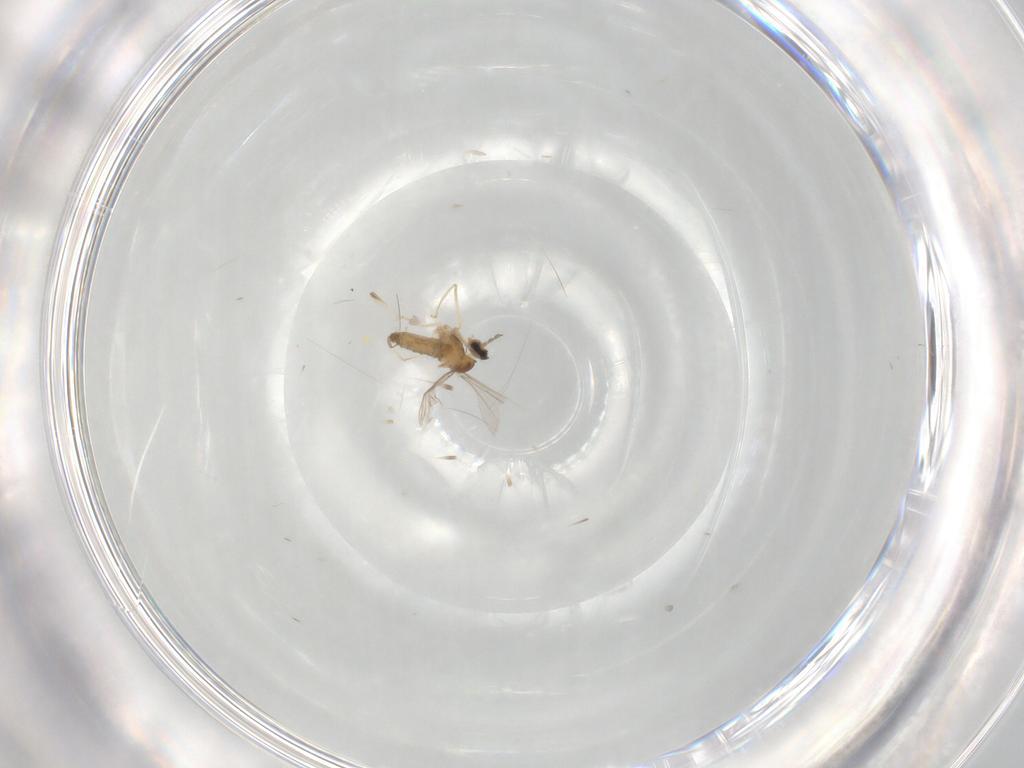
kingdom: Animalia
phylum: Arthropoda
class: Insecta
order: Diptera
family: Cecidomyiidae
